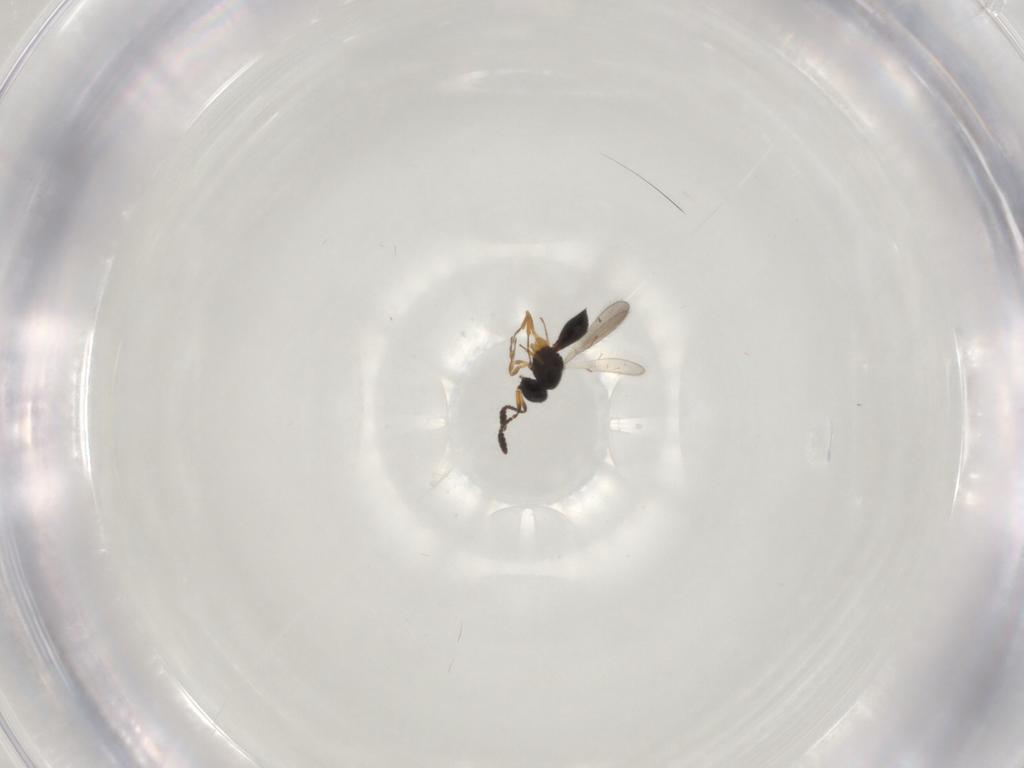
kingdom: Animalia
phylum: Arthropoda
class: Insecta
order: Hymenoptera
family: Scelionidae
